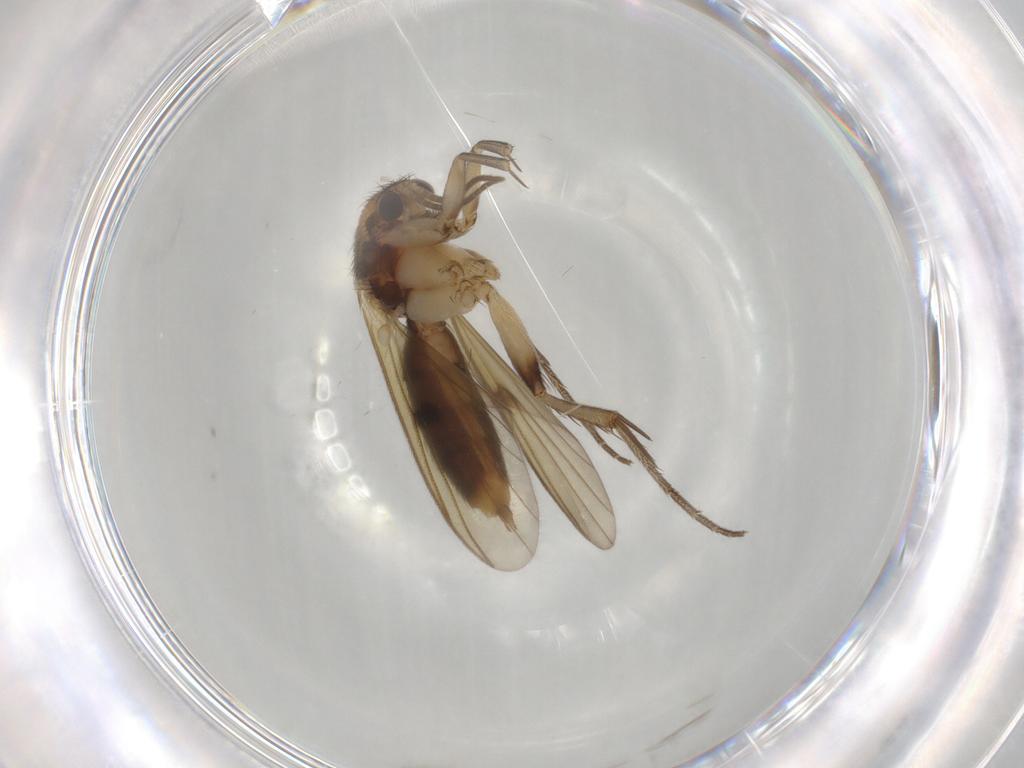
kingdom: Animalia
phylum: Arthropoda
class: Insecta
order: Diptera
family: Mycetophilidae
